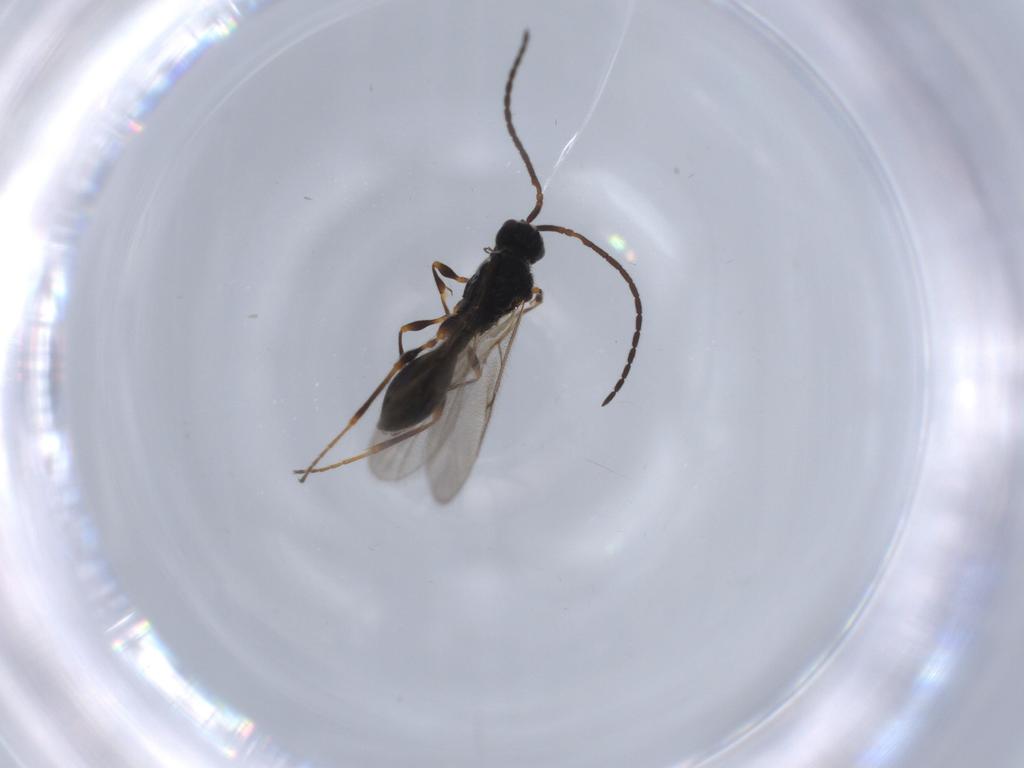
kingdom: Animalia
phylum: Arthropoda
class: Insecta
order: Hymenoptera
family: Diapriidae
